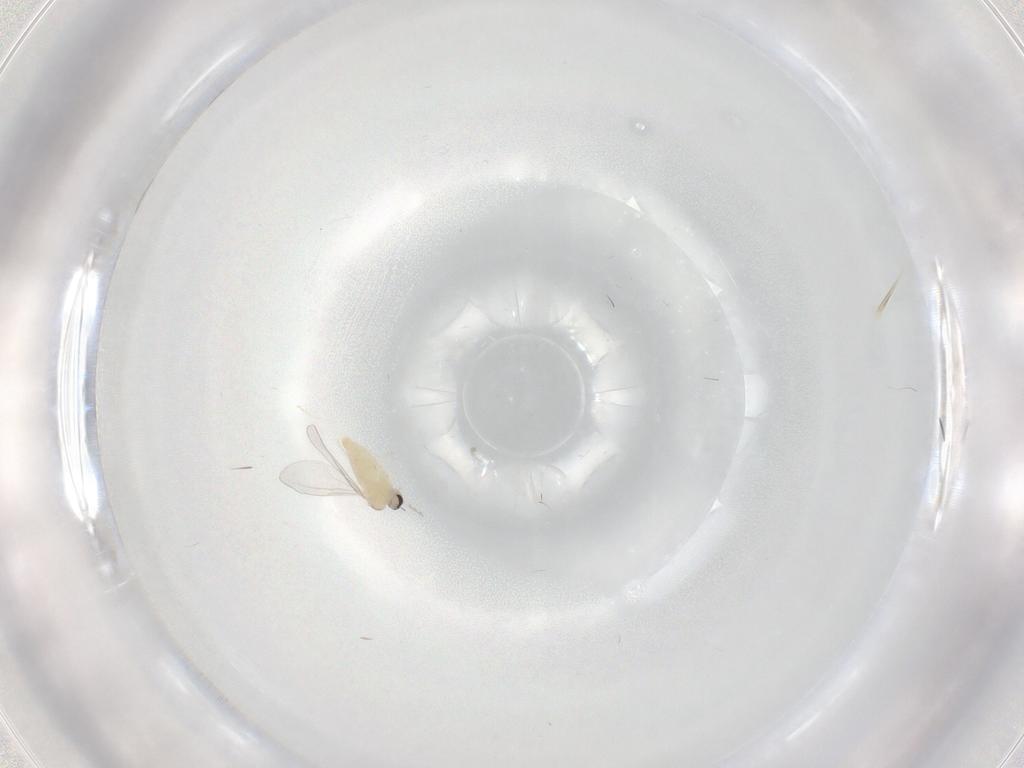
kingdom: Animalia
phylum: Arthropoda
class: Insecta
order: Diptera
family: Cecidomyiidae
